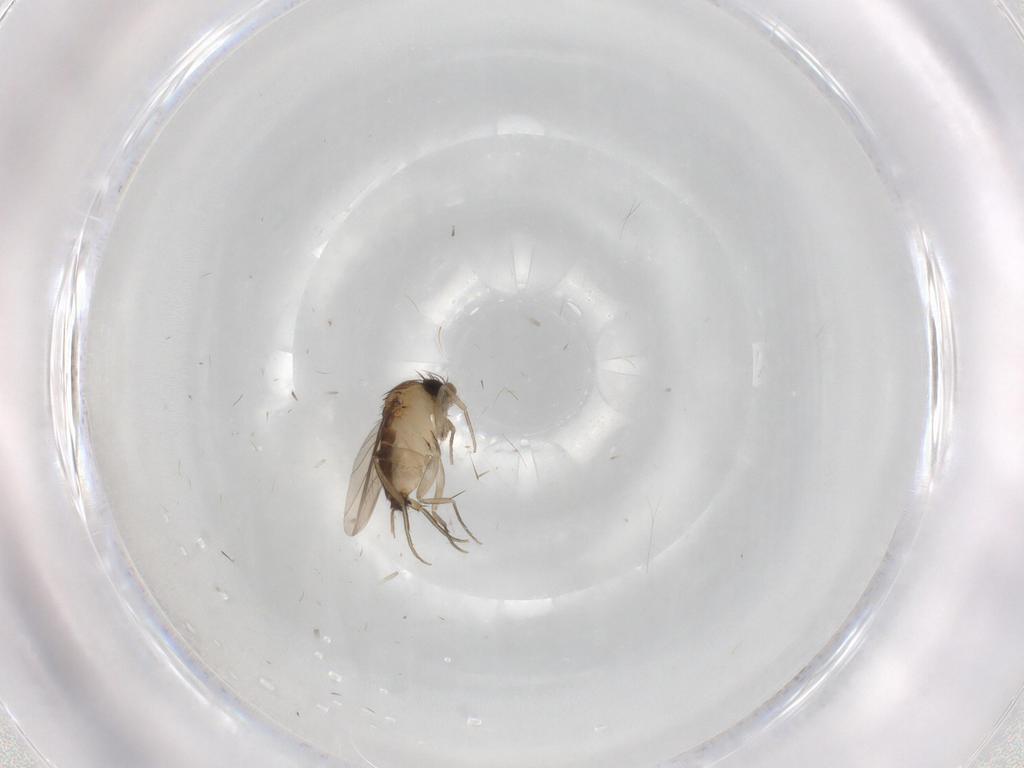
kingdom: Animalia
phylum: Arthropoda
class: Insecta
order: Diptera
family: Phoridae
